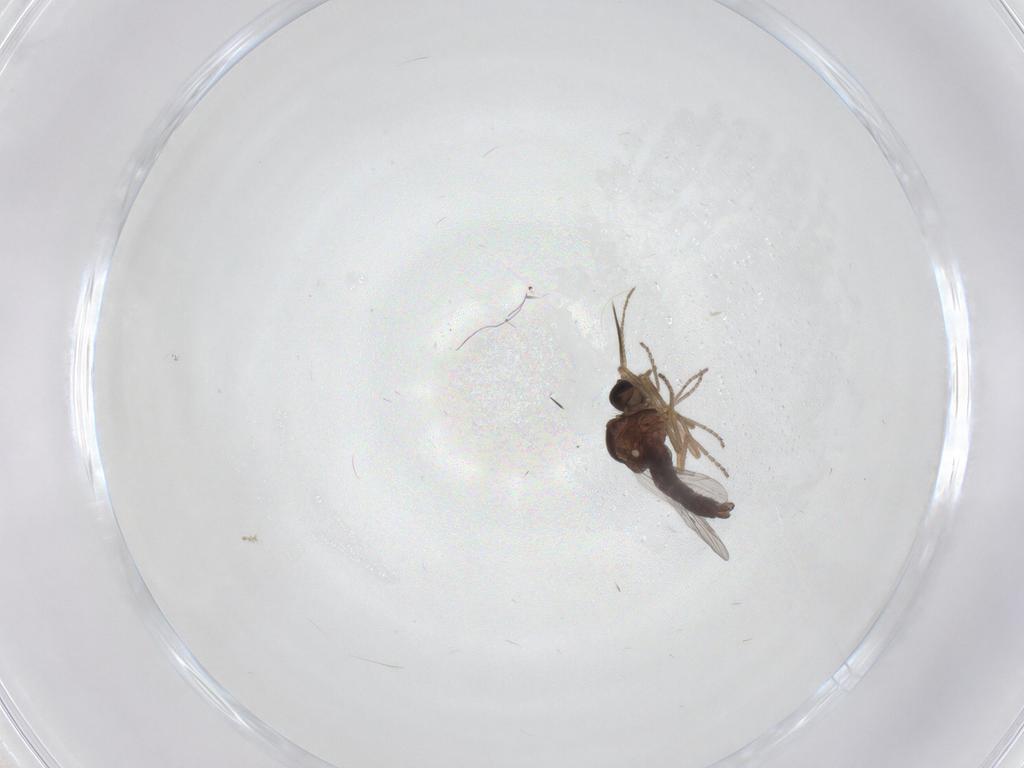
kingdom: Animalia
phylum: Arthropoda
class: Insecta
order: Diptera
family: Ceratopogonidae
